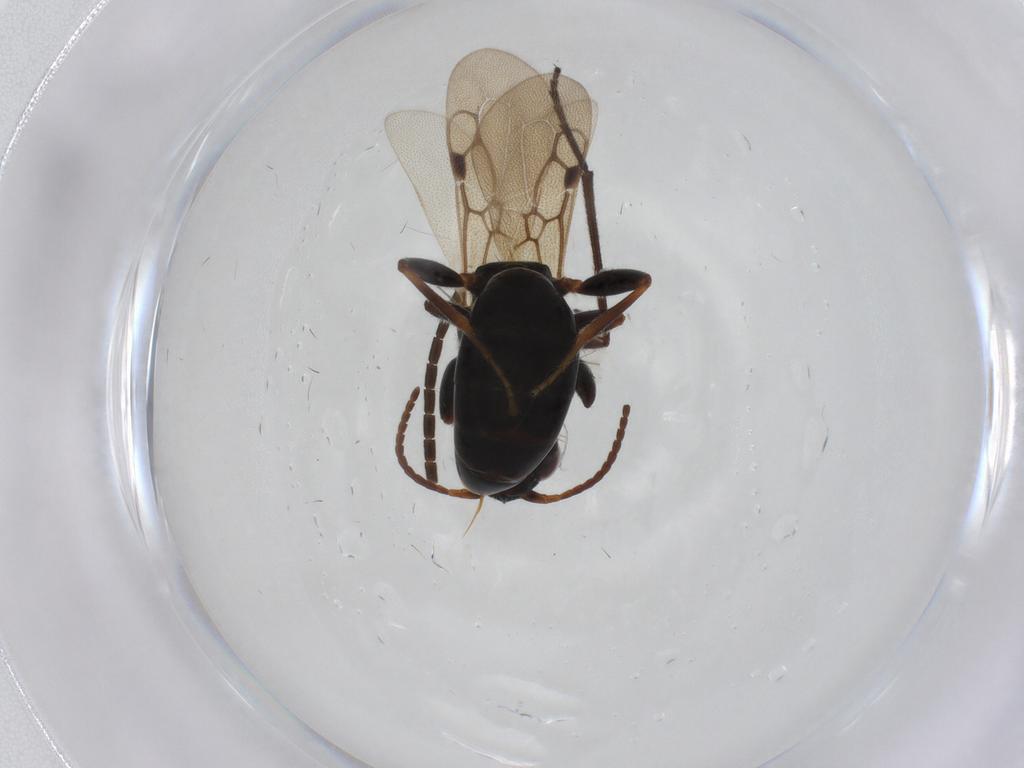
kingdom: Animalia
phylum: Arthropoda
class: Insecta
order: Hymenoptera
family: Bethylidae
